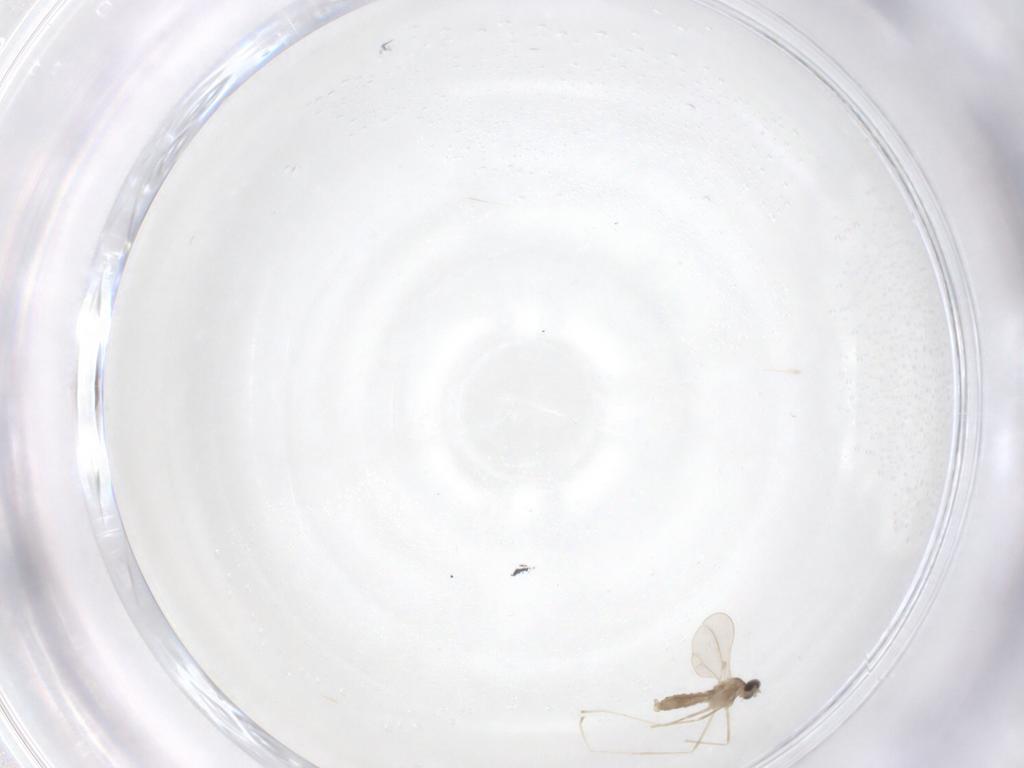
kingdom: Animalia
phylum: Arthropoda
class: Insecta
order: Diptera
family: Cecidomyiidae
